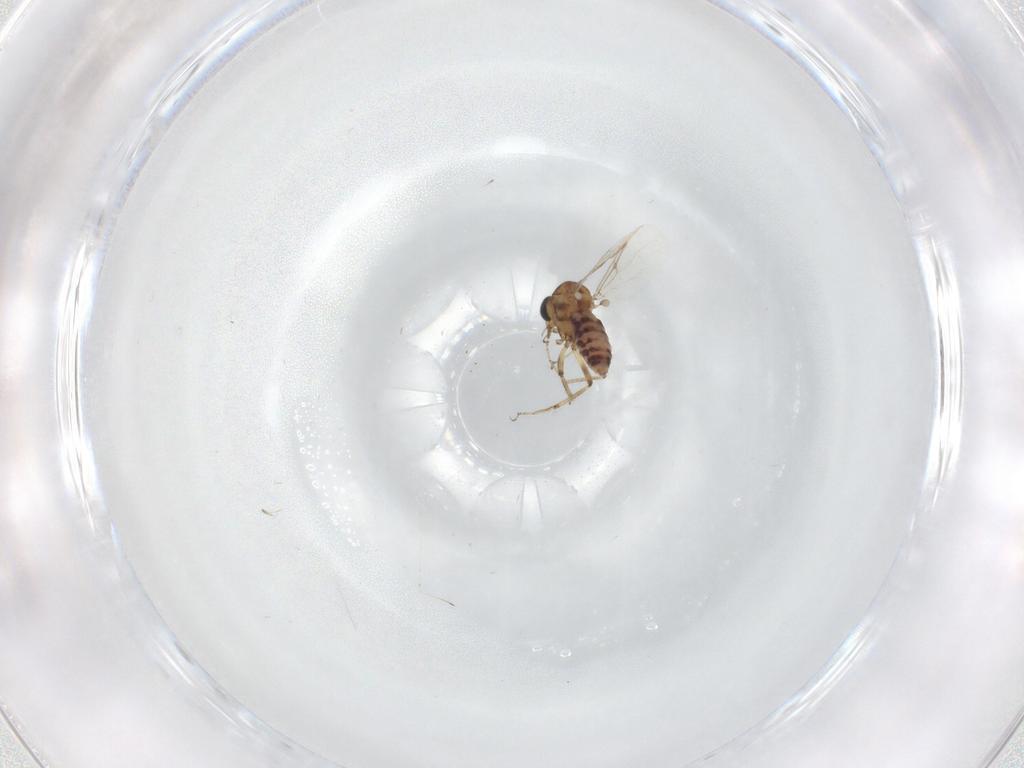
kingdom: Animalia
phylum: Arthropoda
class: Insecta
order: Diptera
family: Ceratopogonidae
